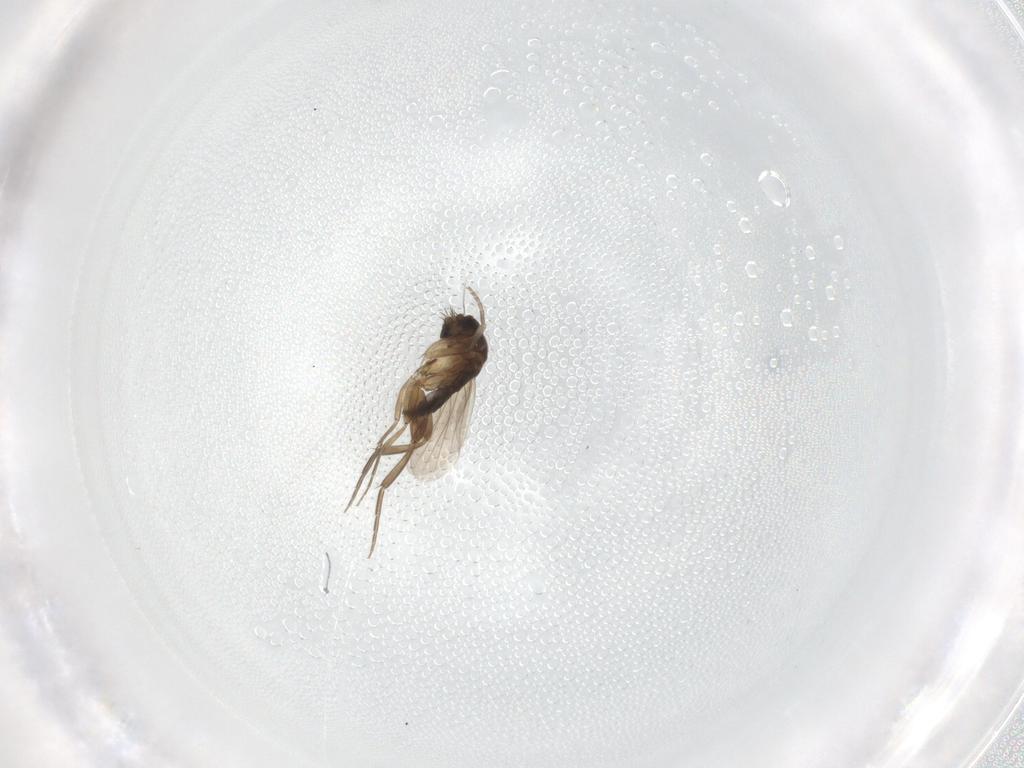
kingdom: Animalia
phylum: Arthropoda
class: Insecta
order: Diptera
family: Phoridae
